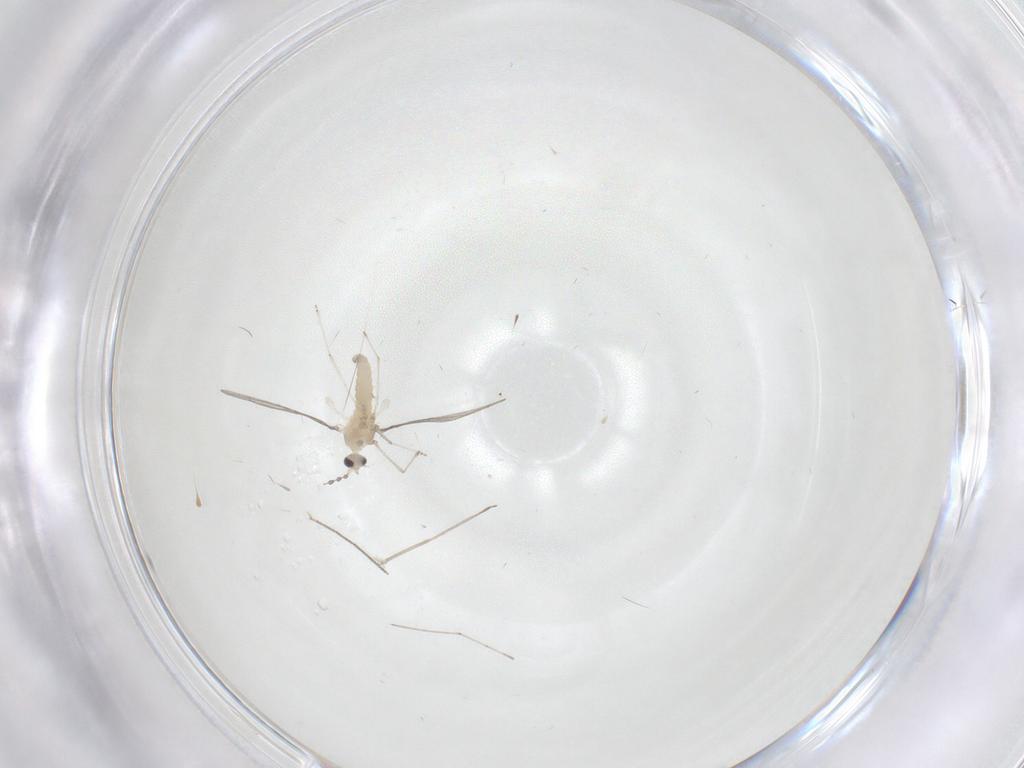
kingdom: Animalia
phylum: Arthropoda
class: Insecta
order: Diptera
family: Cecidomyiidae
